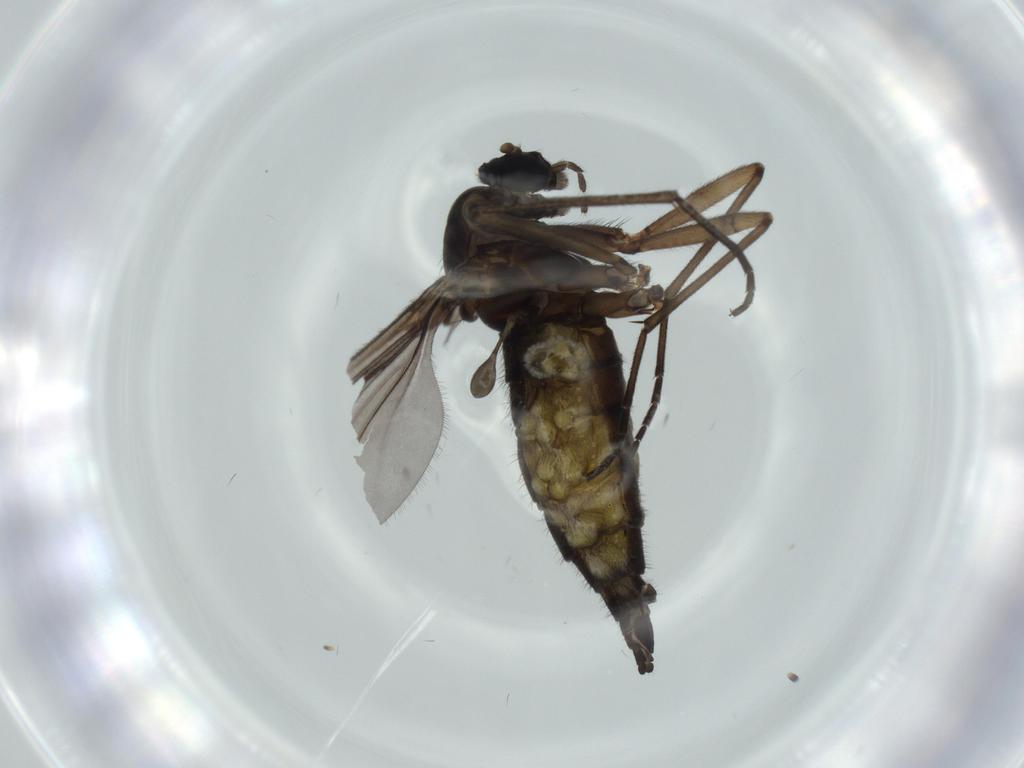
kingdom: Animalia
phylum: Arthropoda
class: Insecta
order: Diptera
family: Sciaridae
